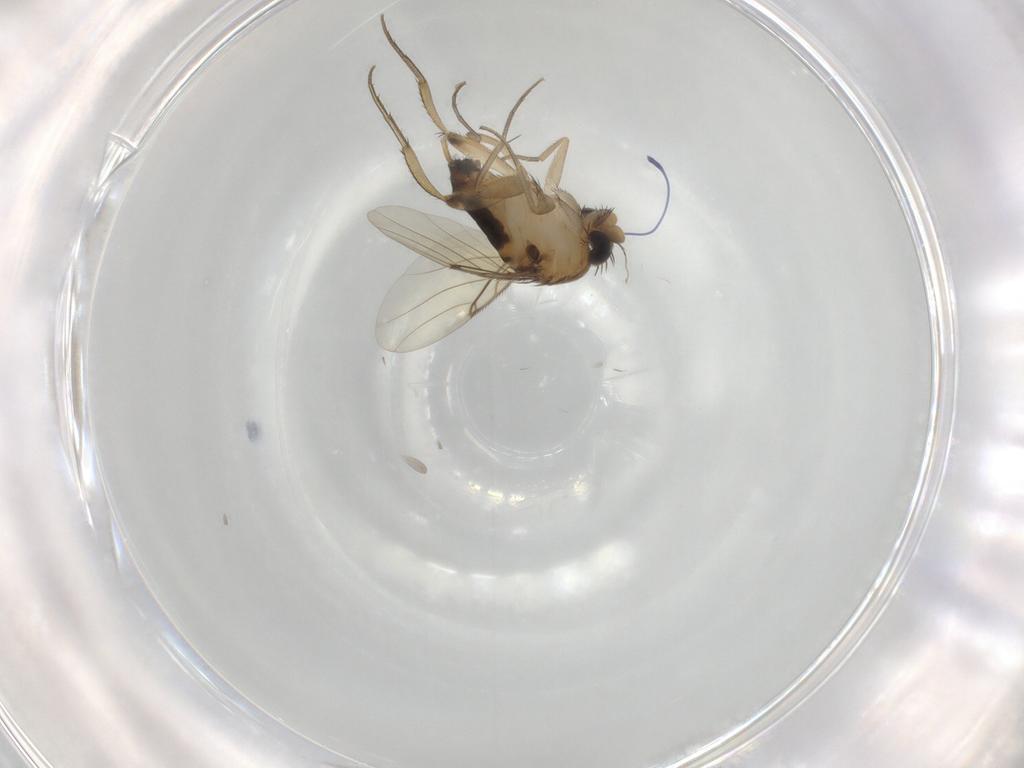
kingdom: Animalia
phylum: Arthropoda
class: Insecta
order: Diptera
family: Phoridae
